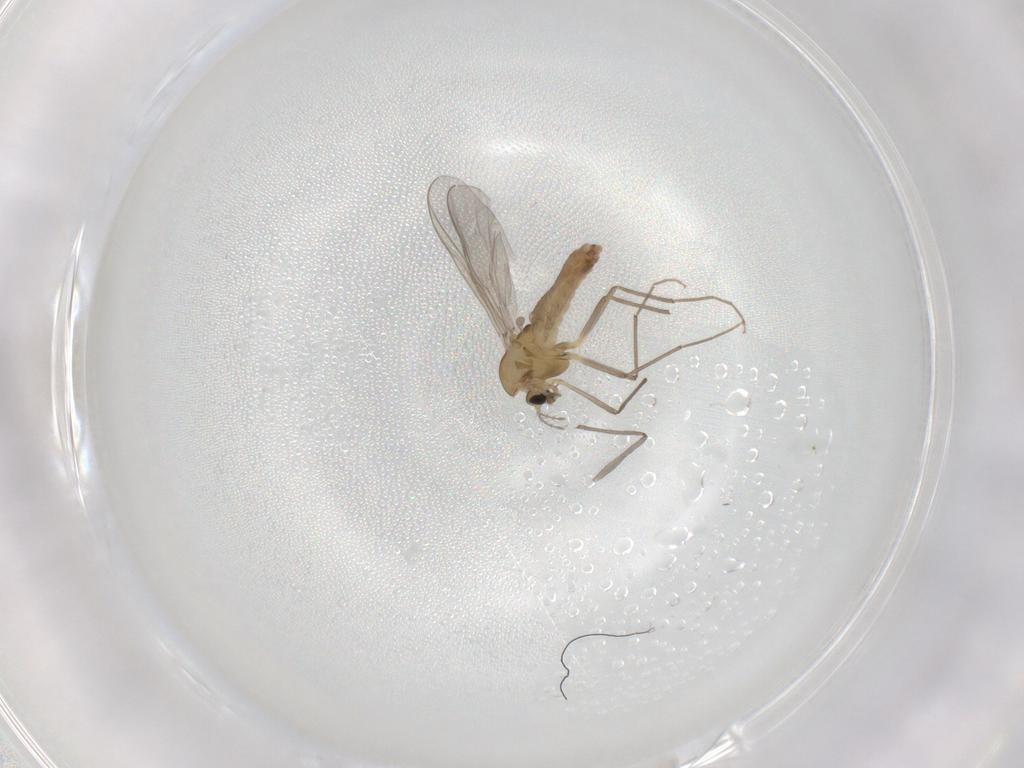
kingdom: Animalia
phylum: Arthropoda
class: Insecta
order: Diptera
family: Chironomidae
